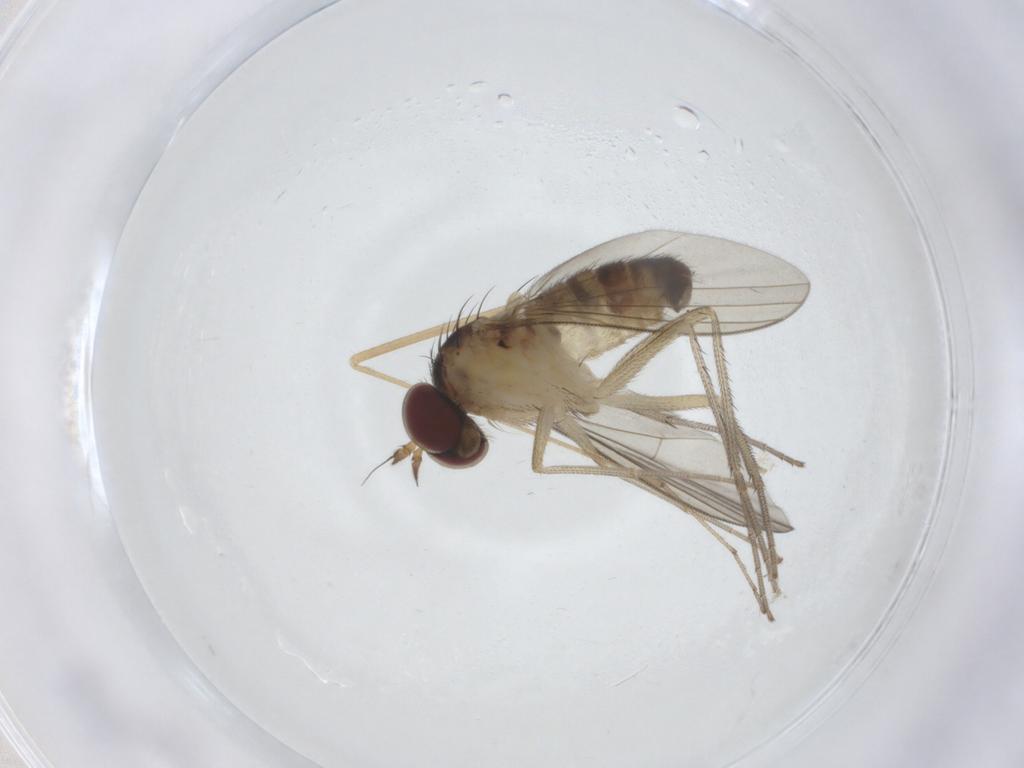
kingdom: Animalia
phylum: Arthropoda
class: Insecta
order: Diptera
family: Dolichopodidae
